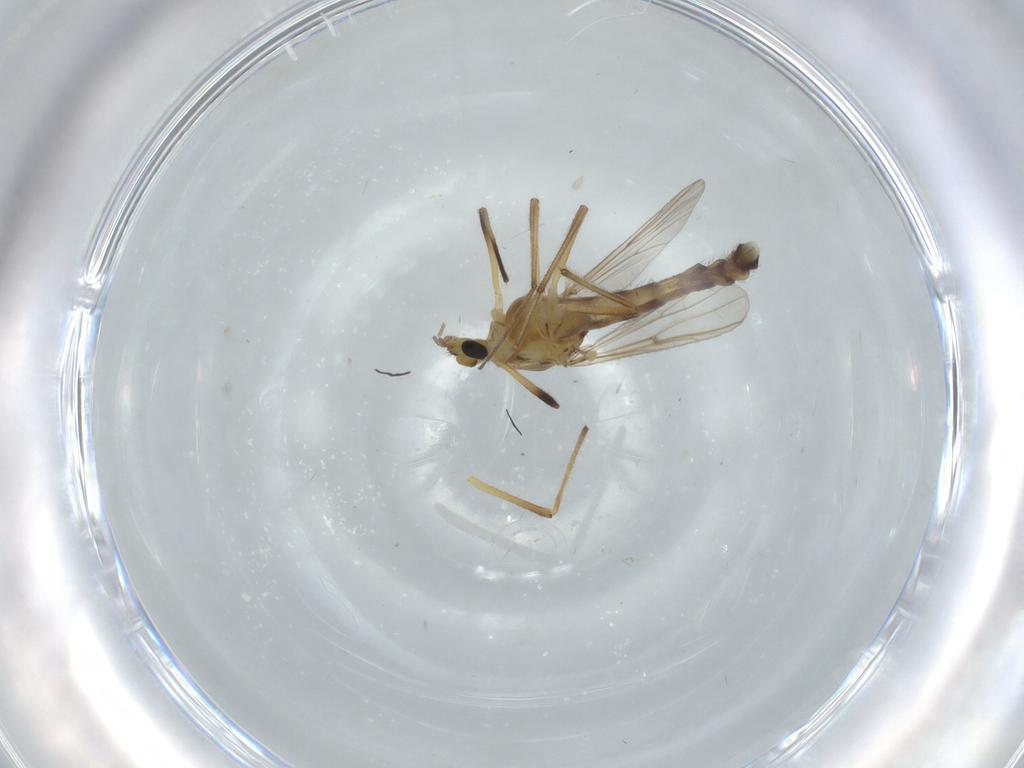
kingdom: Animalia
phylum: Arthropoda
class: Insecta
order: Diptera
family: Chironomidae
